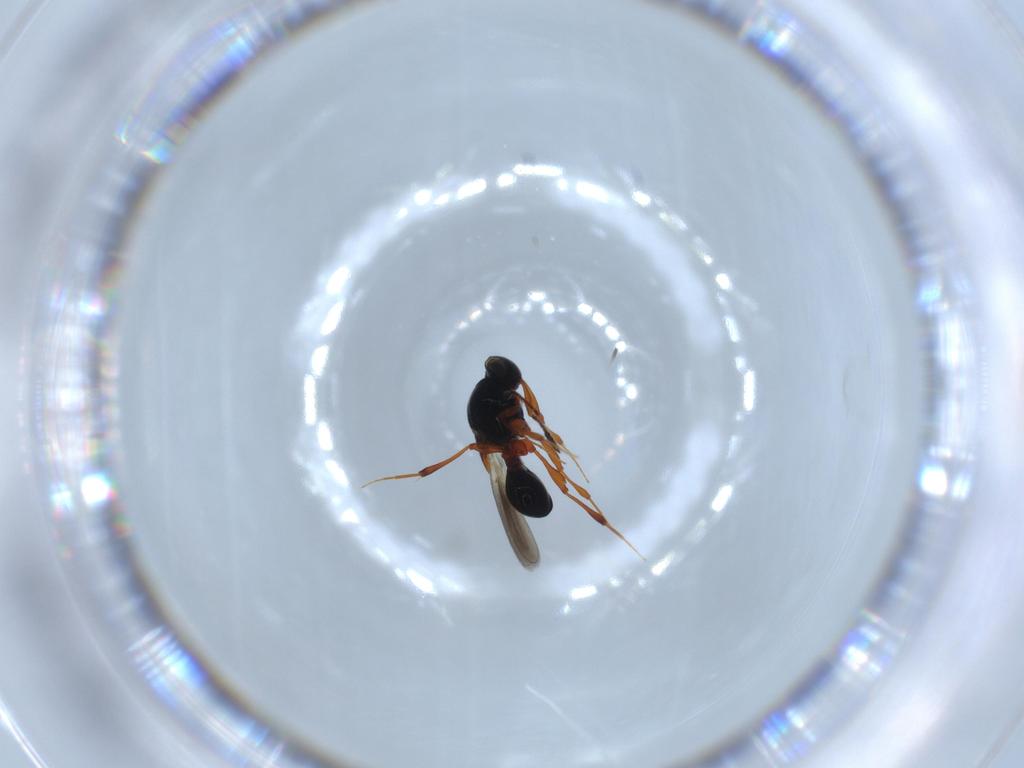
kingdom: Animalia
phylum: Arthropoda
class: Insecta
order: Hymenoptera
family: Platygastridae
